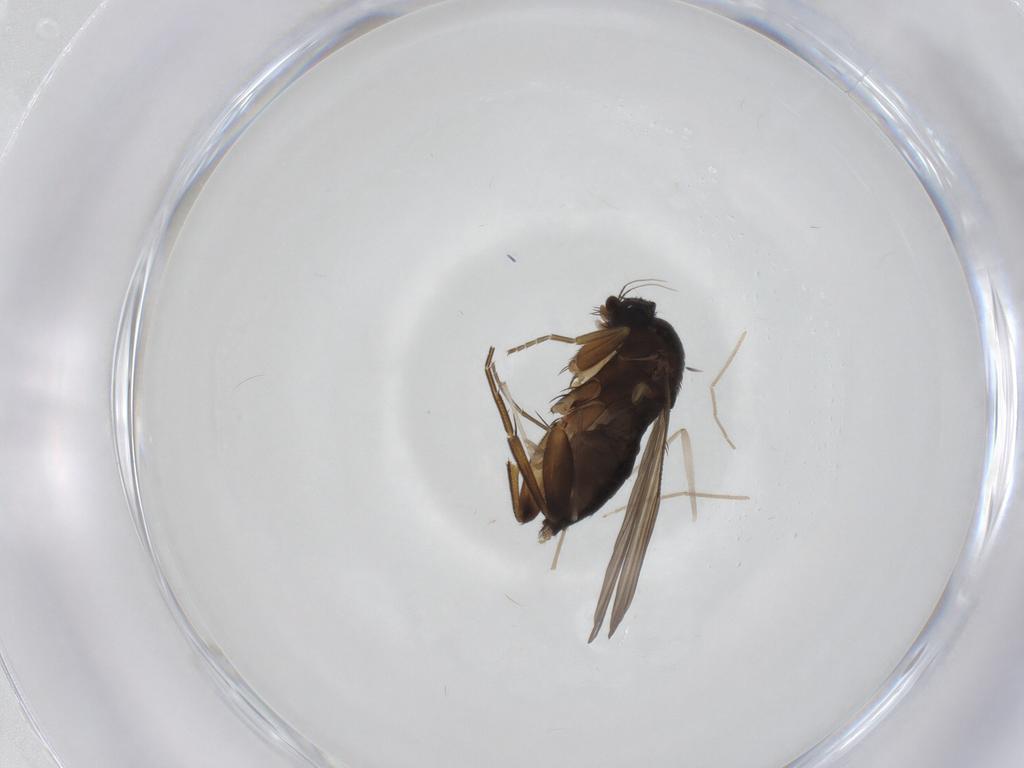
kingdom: Animalia
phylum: Arthropoda
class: Insecta
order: Diptera
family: Phoridae
